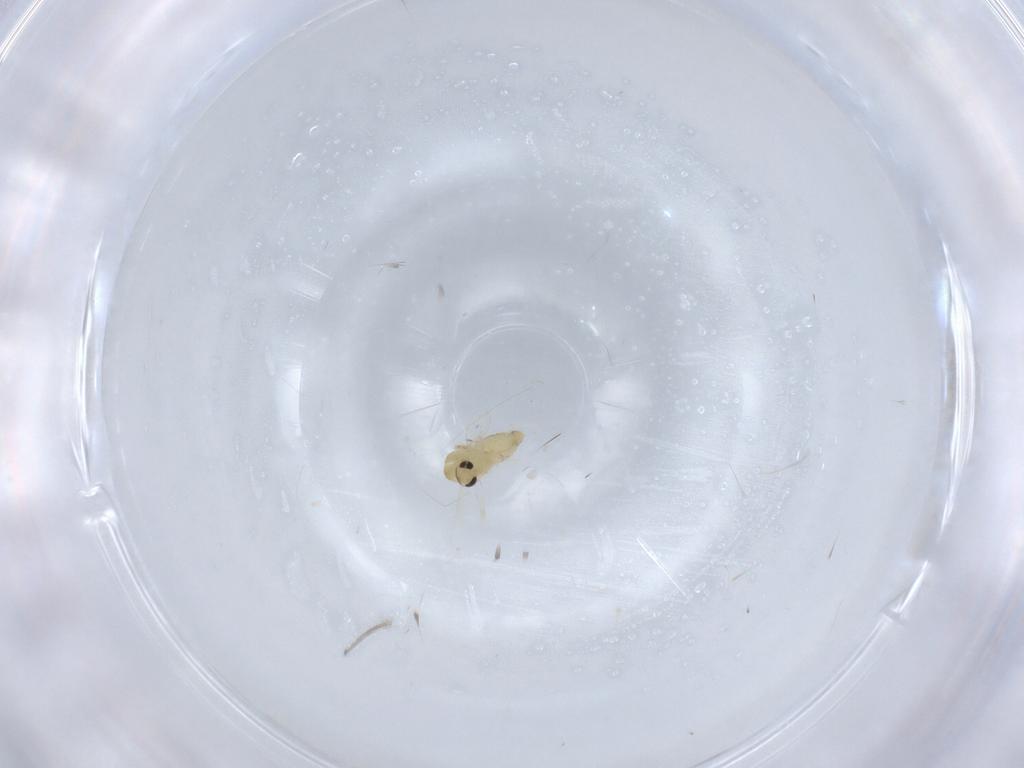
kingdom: Animalia
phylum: Arthropoda
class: Insecta
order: Diptera
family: Chironomidae
